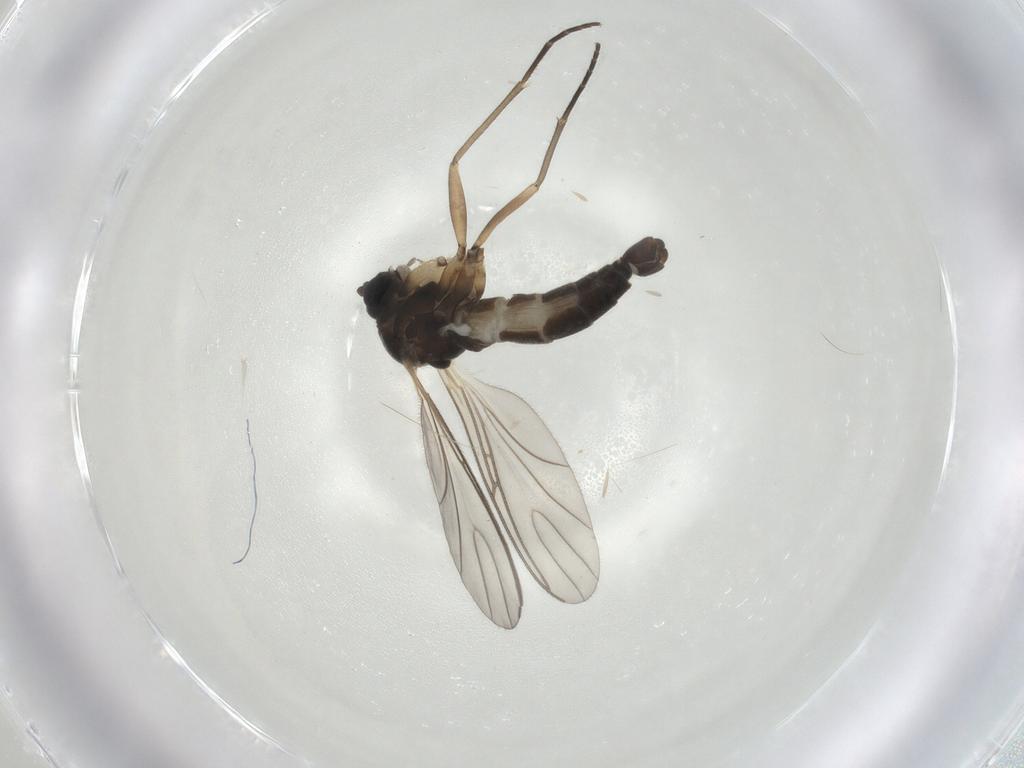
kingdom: Animalia
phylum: Arthropoda
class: Insecta
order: Diptera
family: Sciaridae
